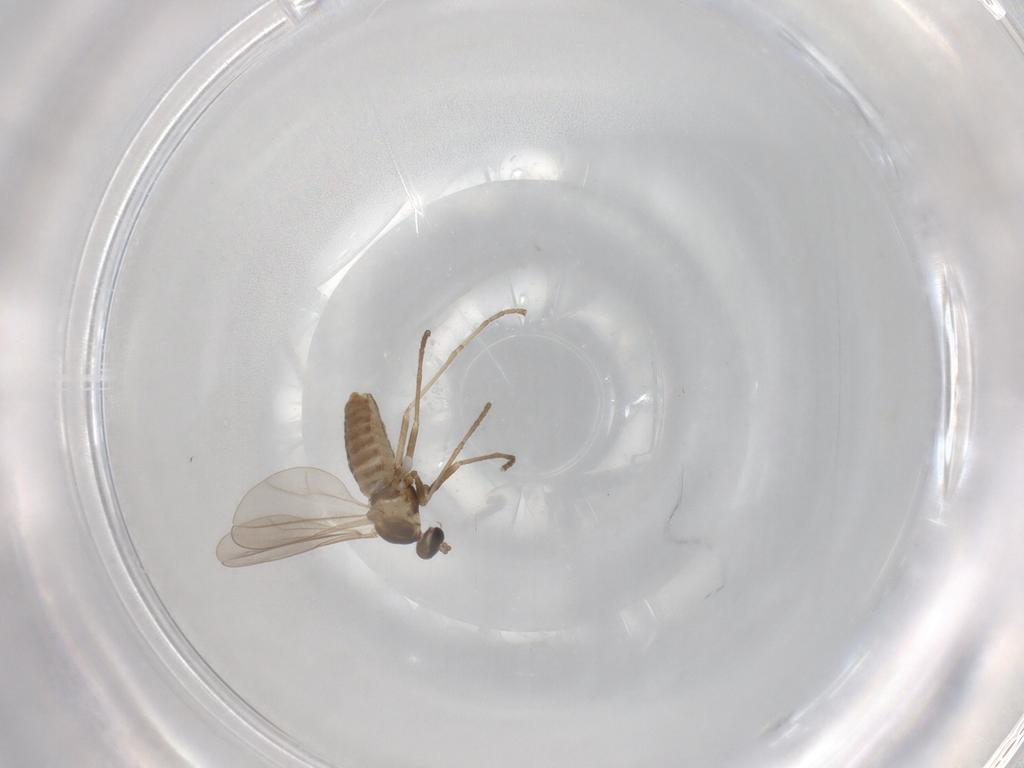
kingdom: Animalia
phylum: Arthropoda
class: Insecta
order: Diptera
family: Cecidomyiidae
